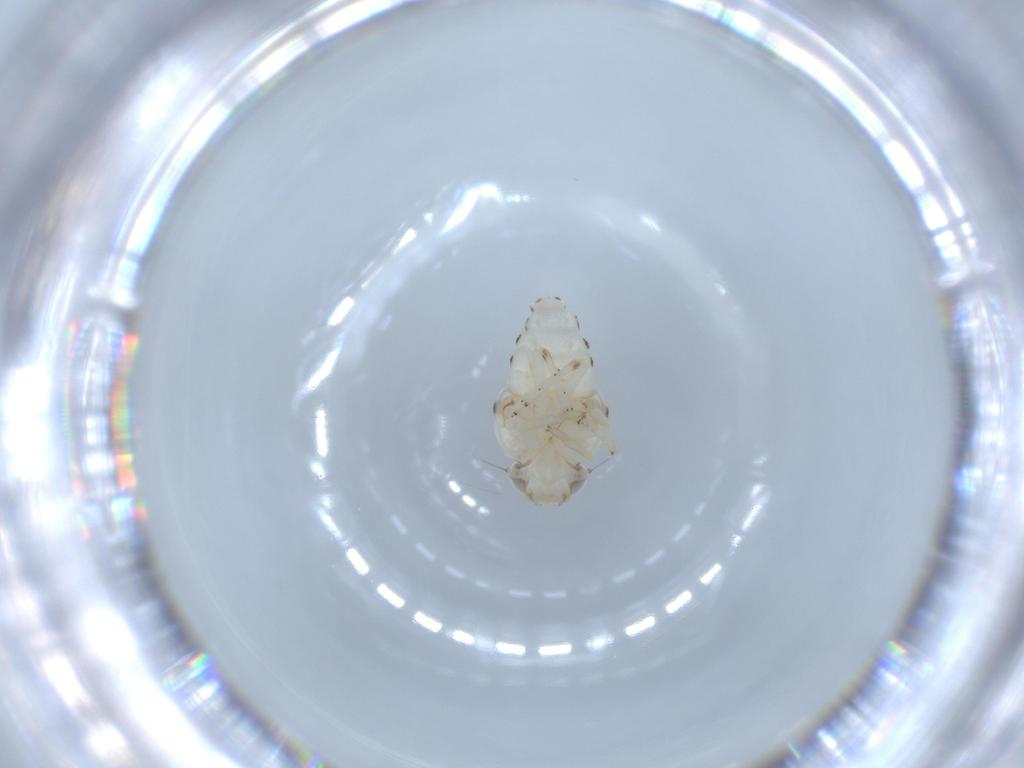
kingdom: Animalia
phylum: Arthropoda
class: Insecta
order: Hemiptera
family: Nogodinidae
